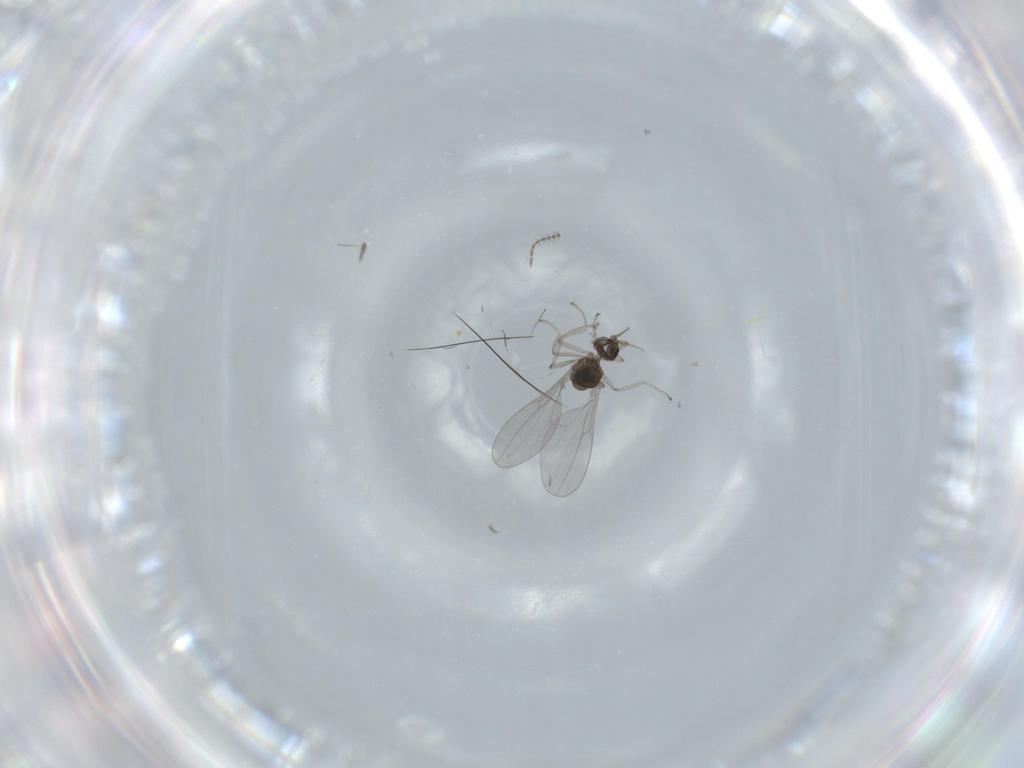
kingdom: Animalia
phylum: Arthropoda
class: Insecta
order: Diptera
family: Cecidomyiidae
